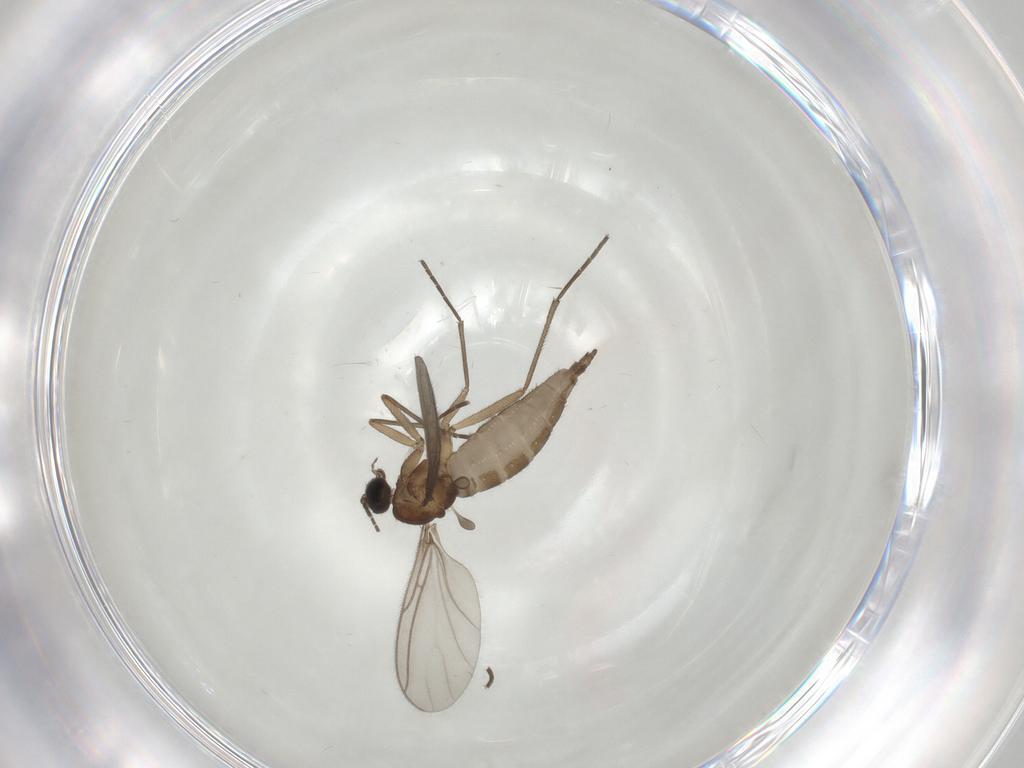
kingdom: Animalia
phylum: Arthropoda
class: Insecta
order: Diptera
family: Sciaridae
